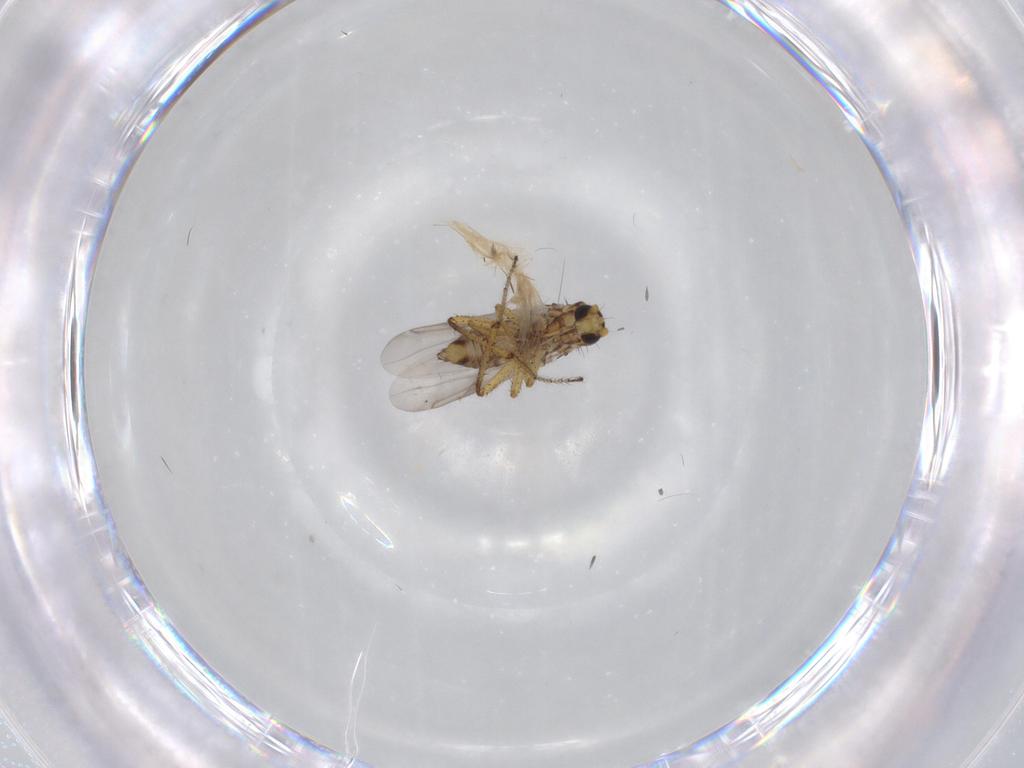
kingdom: Animalia
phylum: Arthropoda
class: Insecta
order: Diptera
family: Ceratopogonidae
